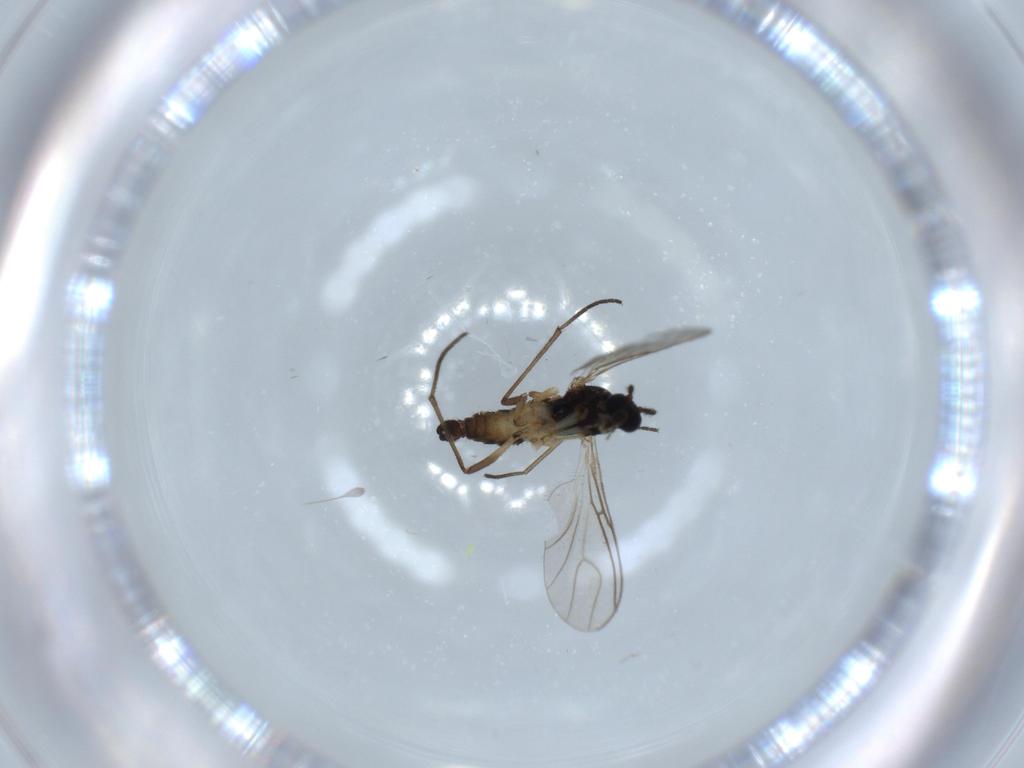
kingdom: Animalia
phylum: Arthropoda
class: Insecta
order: Diptera
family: Sciaridae
